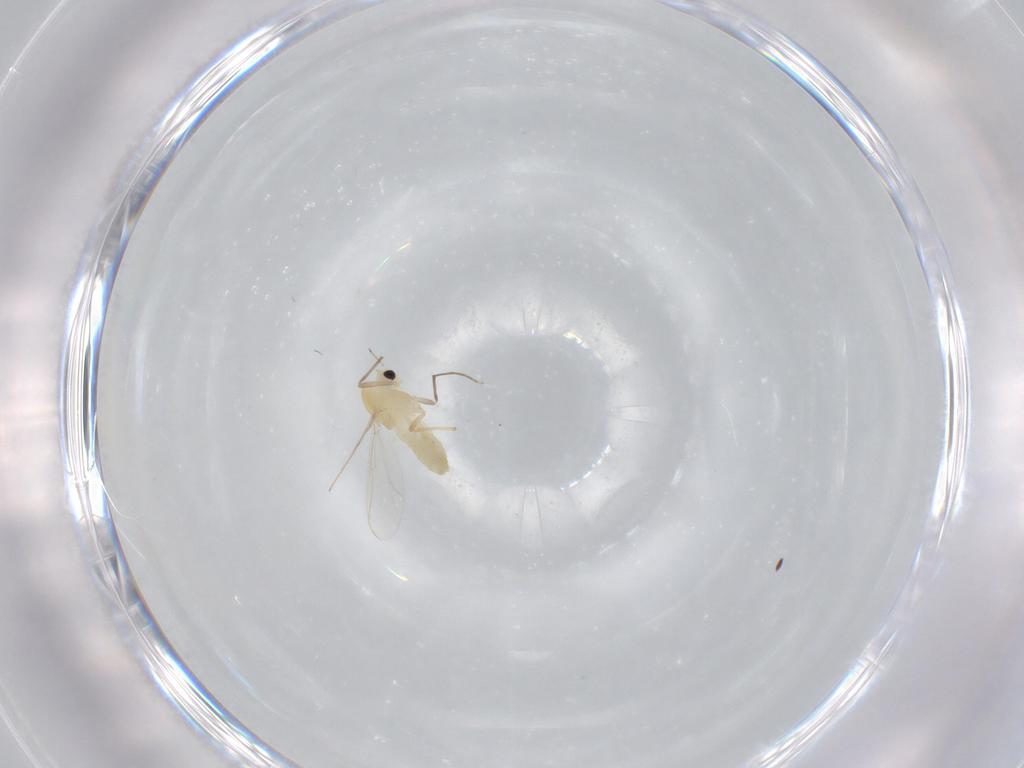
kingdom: Animalia
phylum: Arthropoda
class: Insecta
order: Diptera
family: Chironomidae
